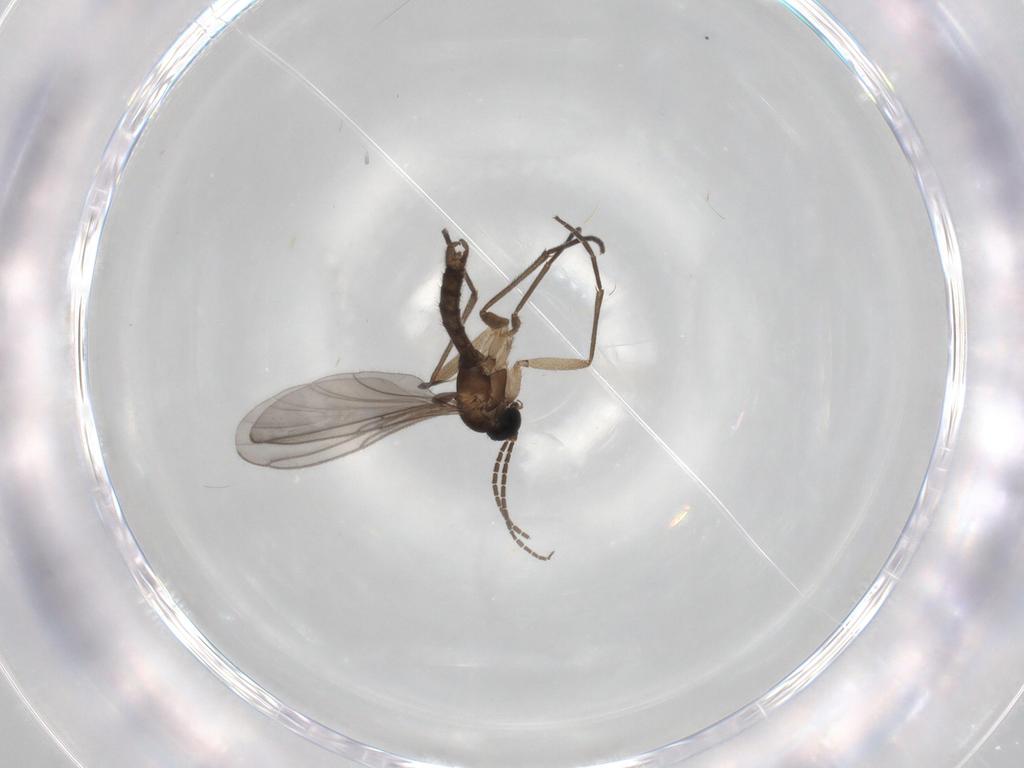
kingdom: Animalia
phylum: Arthropoda
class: Insecta
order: Diptera
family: Sciaridae
